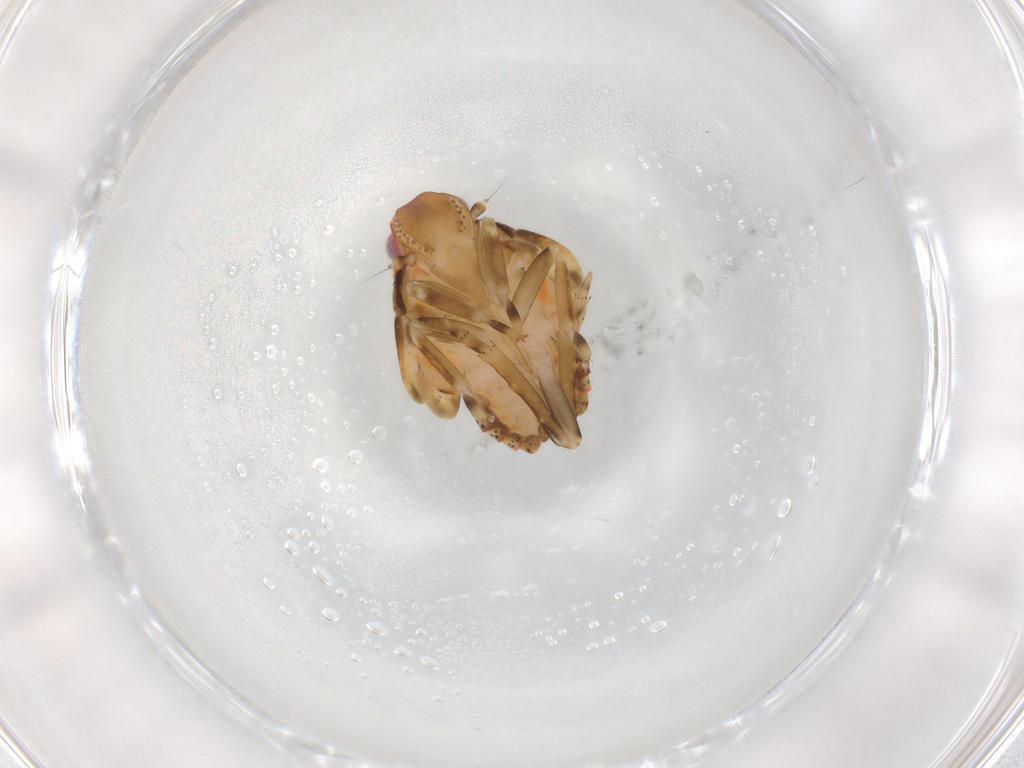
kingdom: Animalia
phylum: Arthropoda
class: Insecta
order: Hemiptera
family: Flatidae
